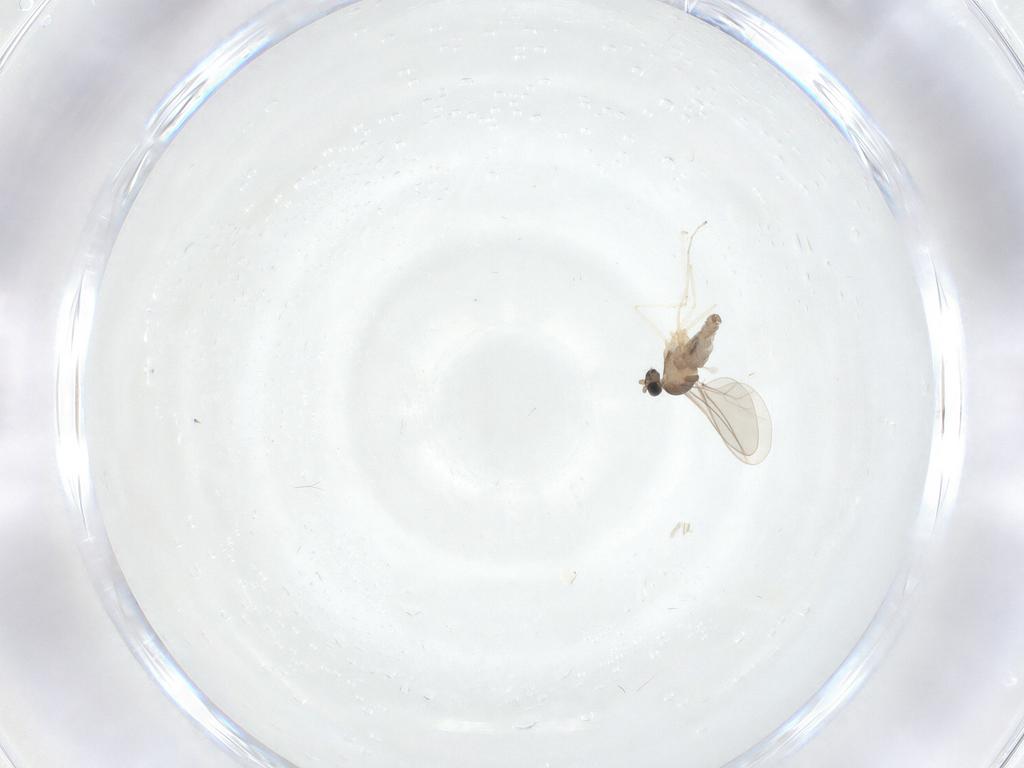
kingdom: Animalia
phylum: Arthropoda
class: Insecta
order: Diptera
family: Cecidomyiidae
